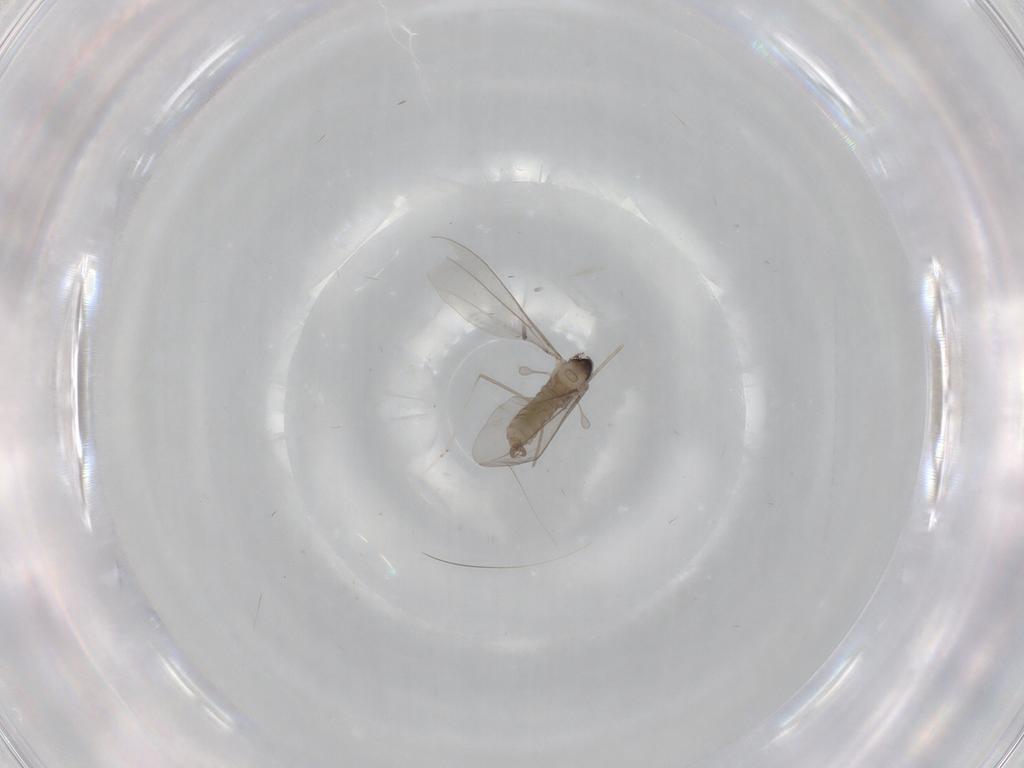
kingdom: Animalia
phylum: Arthropoda
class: Insecta
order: Diptera
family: Cecidomyiidae
